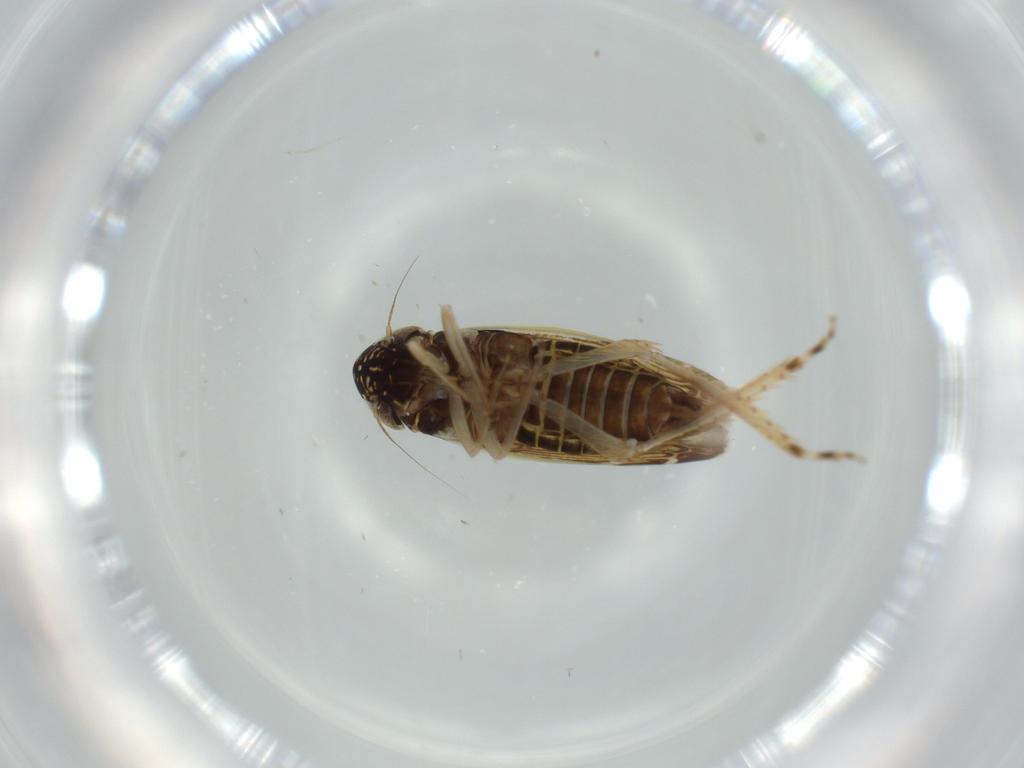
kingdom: Animalia
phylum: Arthropoda
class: Insecta
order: Hemiptera
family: Cicadellidae
